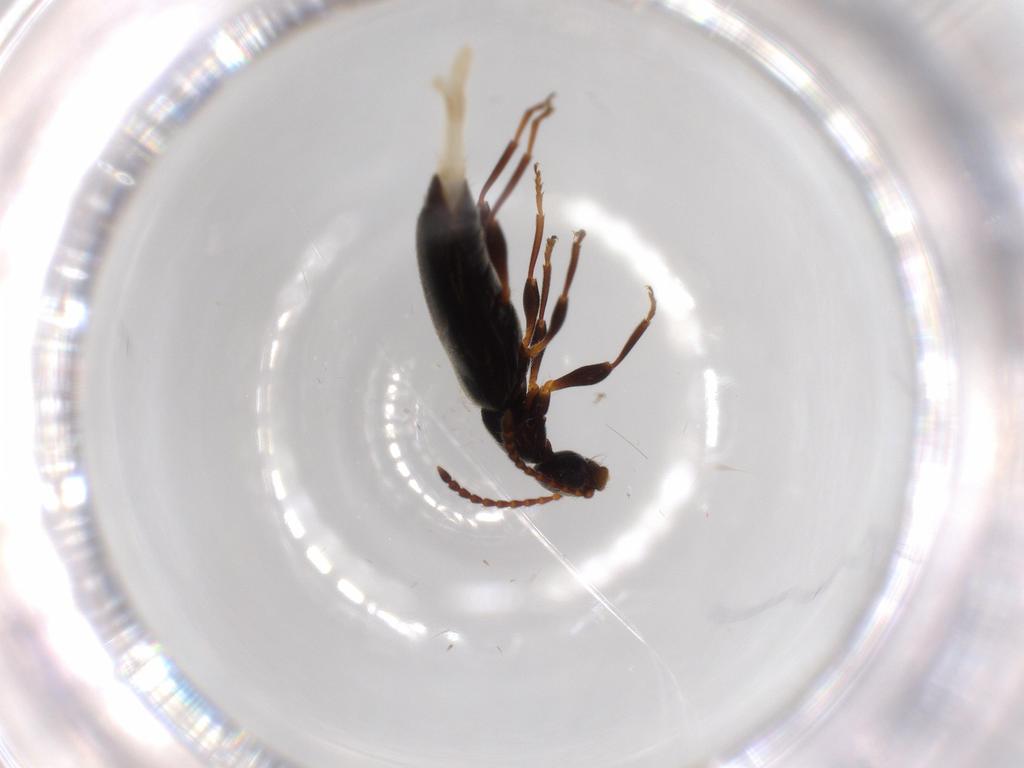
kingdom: Animalia
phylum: Arthropoda
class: Insecta
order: Coleoptera
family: Anthicidae
